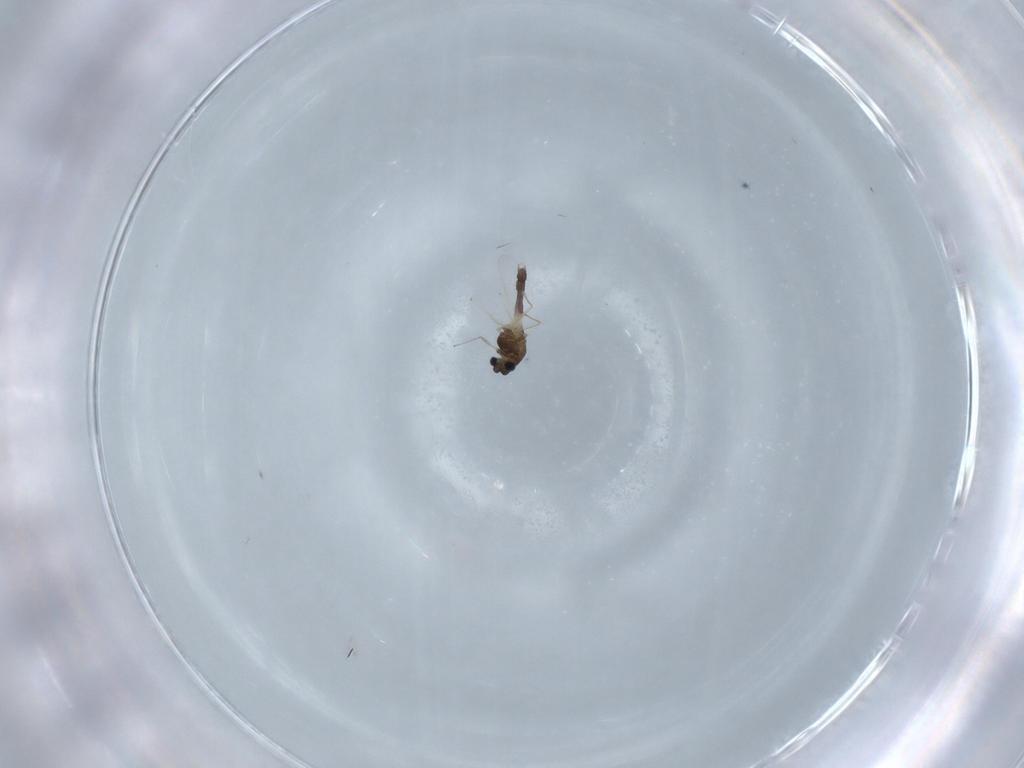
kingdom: Animalia
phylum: Arthropoda
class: Insecta
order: Diptera
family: Chironomidae
